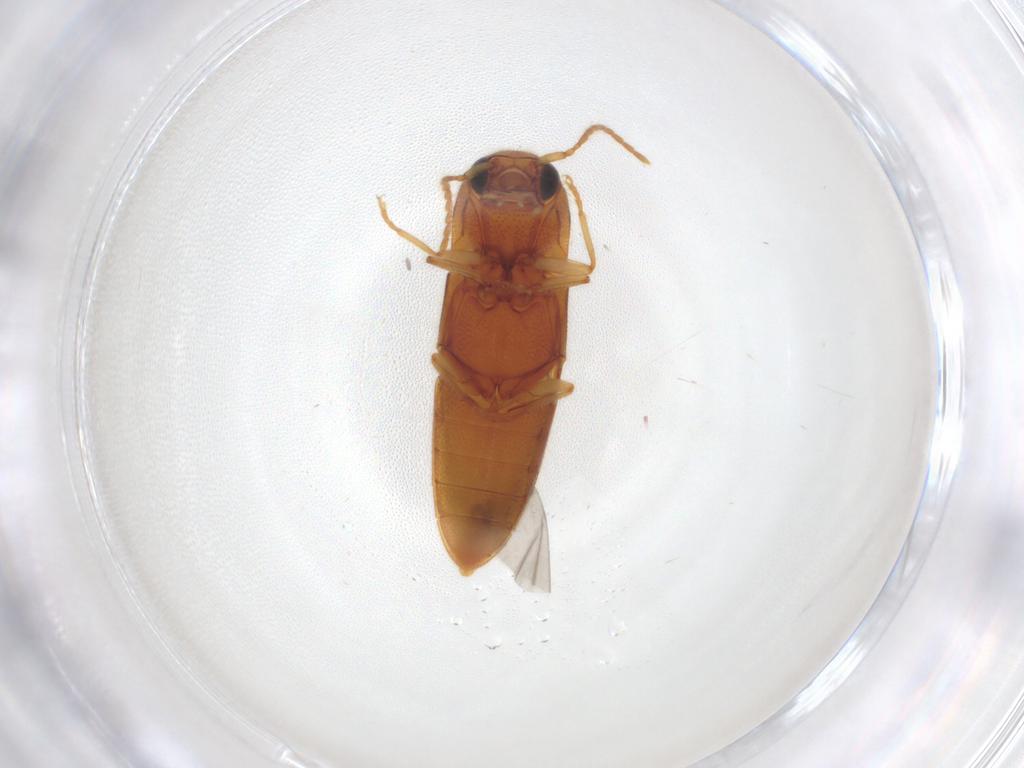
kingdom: Animalia
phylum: Arthropoda
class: Insecta
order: Coleoptera
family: Elateridae
